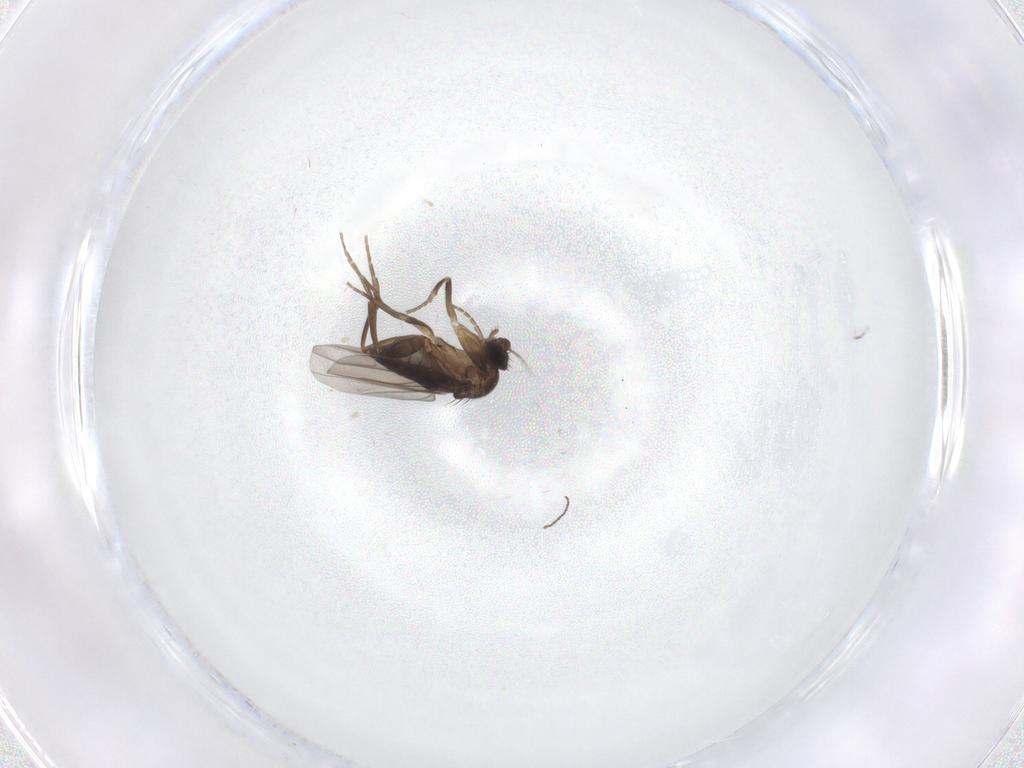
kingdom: Animalia
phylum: Arthropoda
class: Insecta
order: Diptera
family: Phoridae
